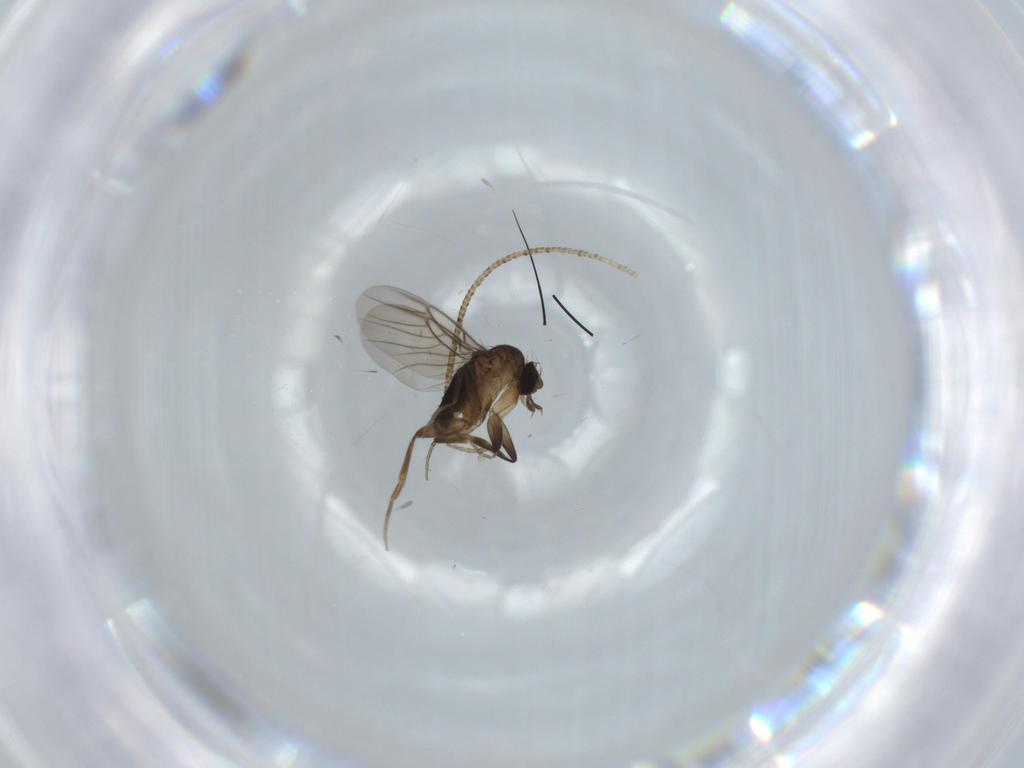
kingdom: Animalia
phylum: Arthropoda
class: Insecta
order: Diptera
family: Phoridae
